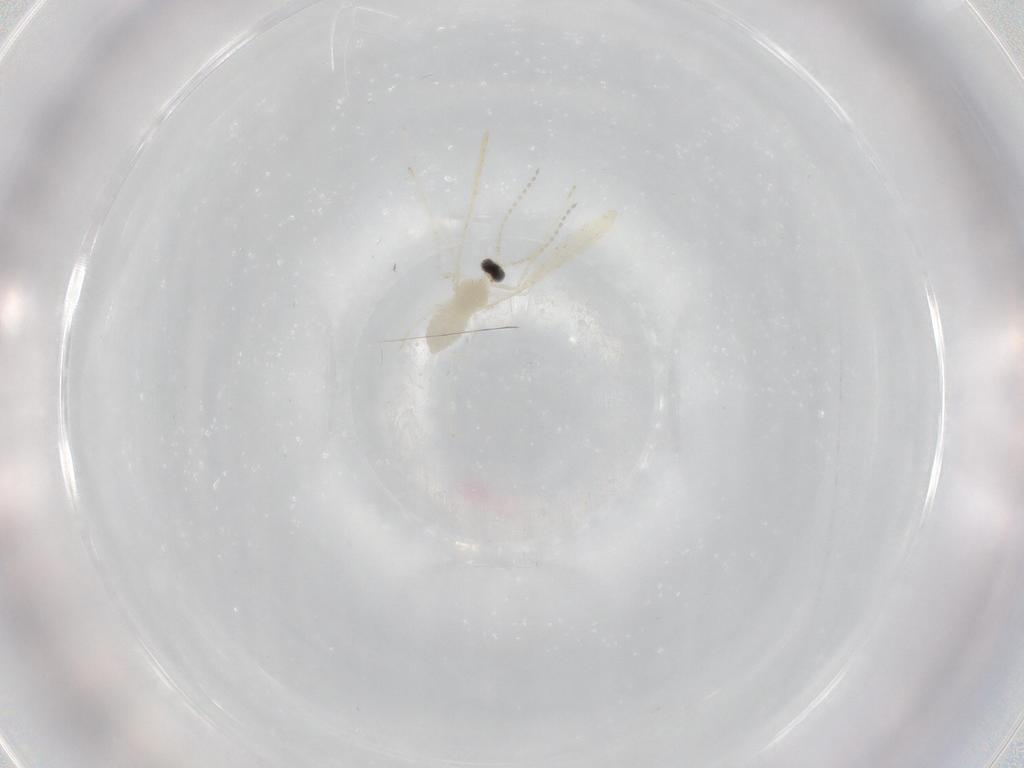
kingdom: Animalia
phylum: Arthropoda
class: Insecta
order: Diptera
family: Cecidomyiidae
